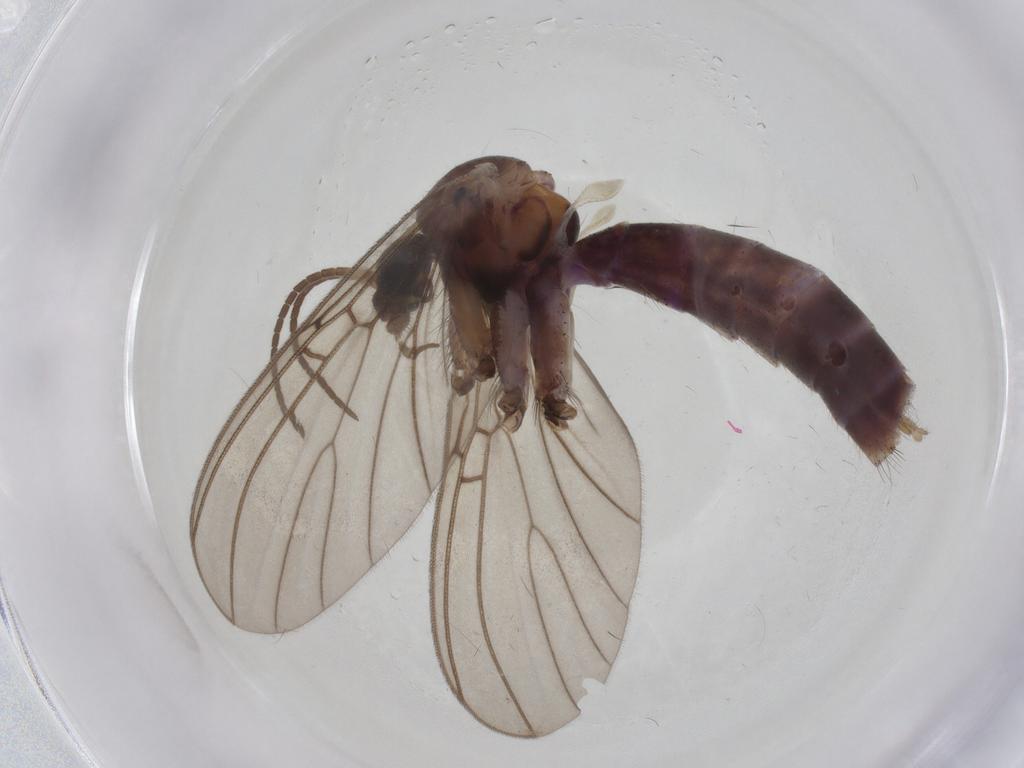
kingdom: Animalia
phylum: Arthropoda
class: Insecta
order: Diptera
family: Mycetophilidae
